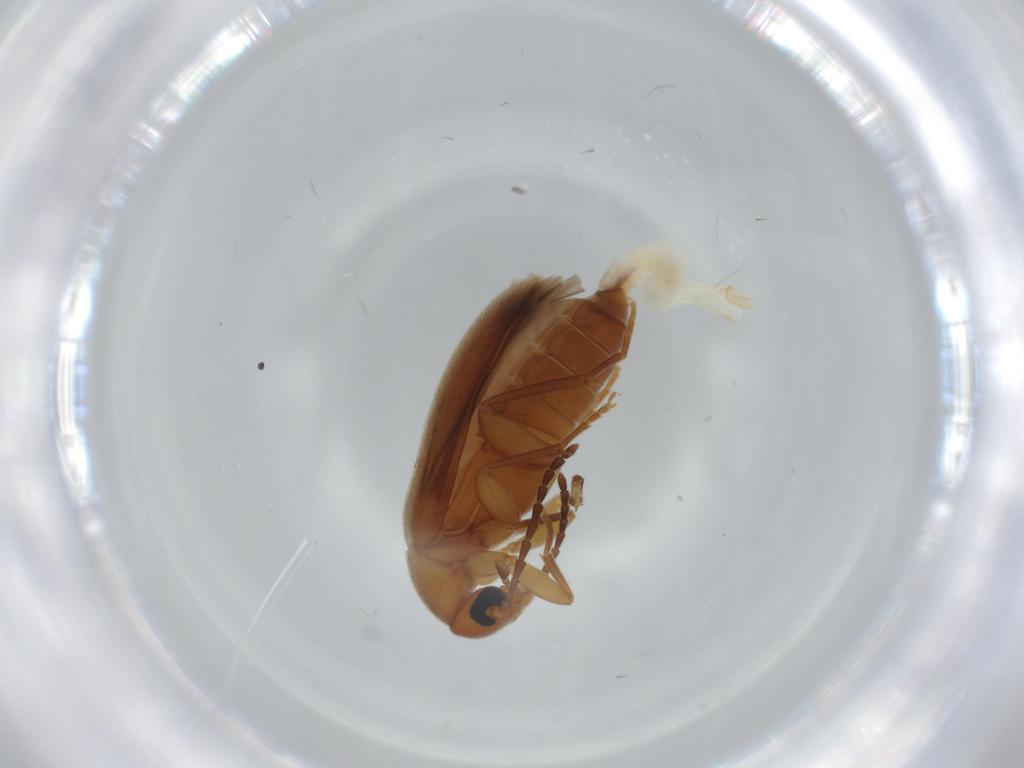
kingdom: Animalia
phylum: Arthropoda
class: Insecta
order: Coleoptera
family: Scraptiidae
